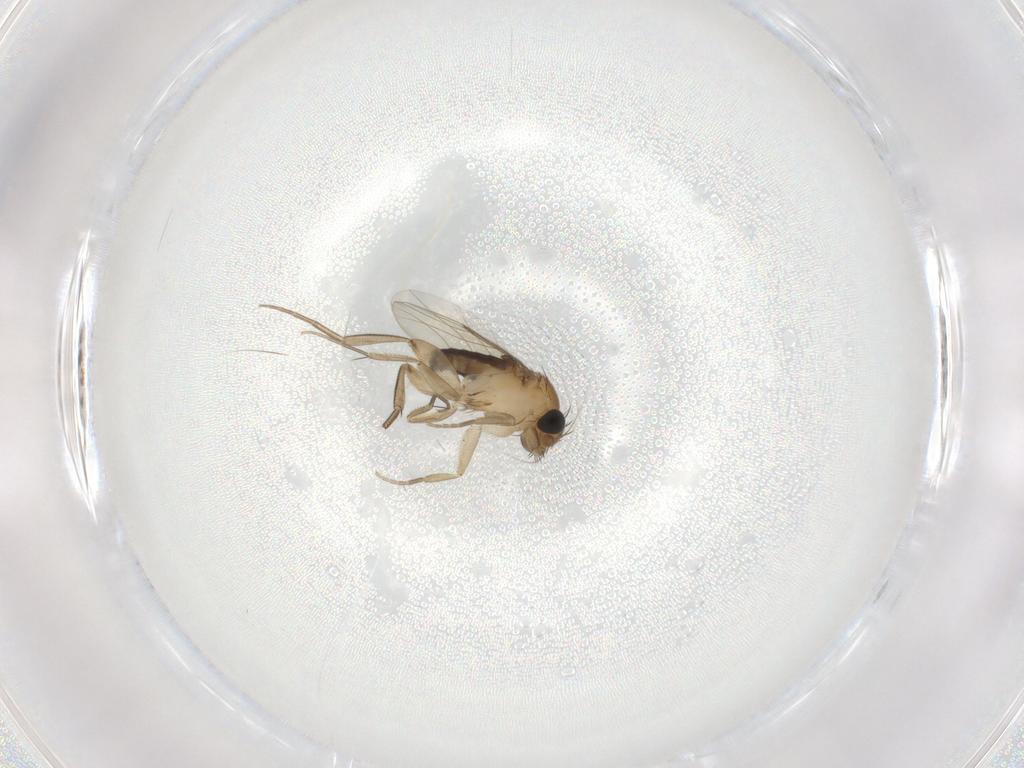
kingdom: Animalia
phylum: Arthropoda
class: Insecta
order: Diptera
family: Phoridae
